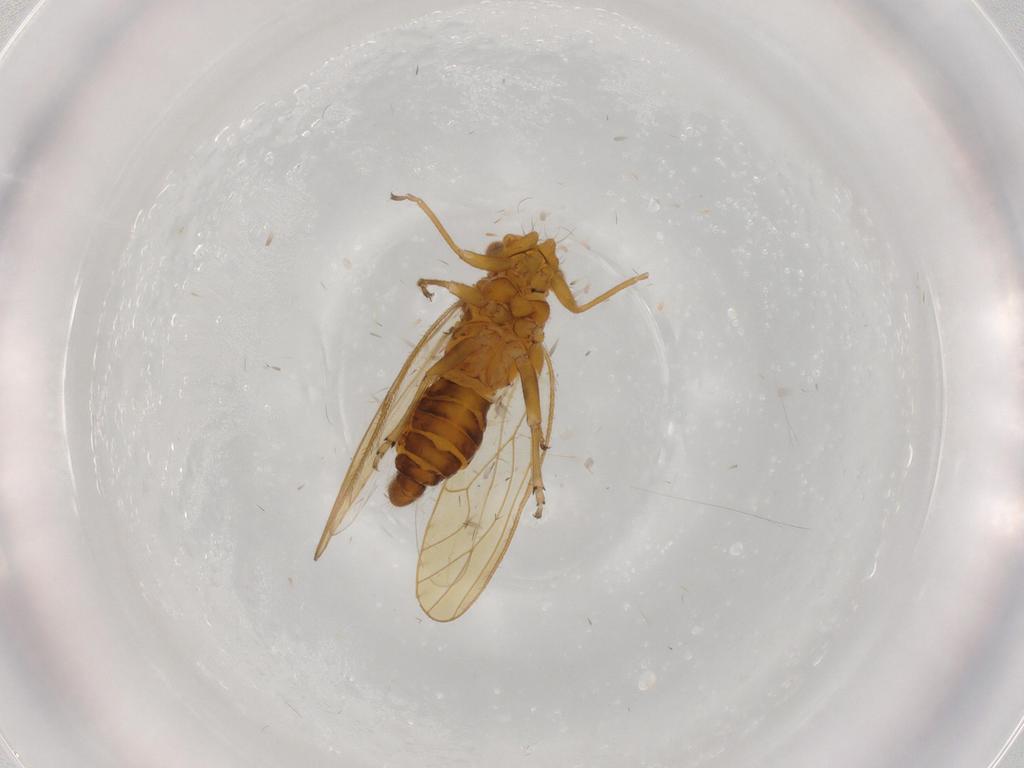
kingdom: Animalia
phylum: Arthropoda
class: Insecta
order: Hemiptera
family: Psyllidae
